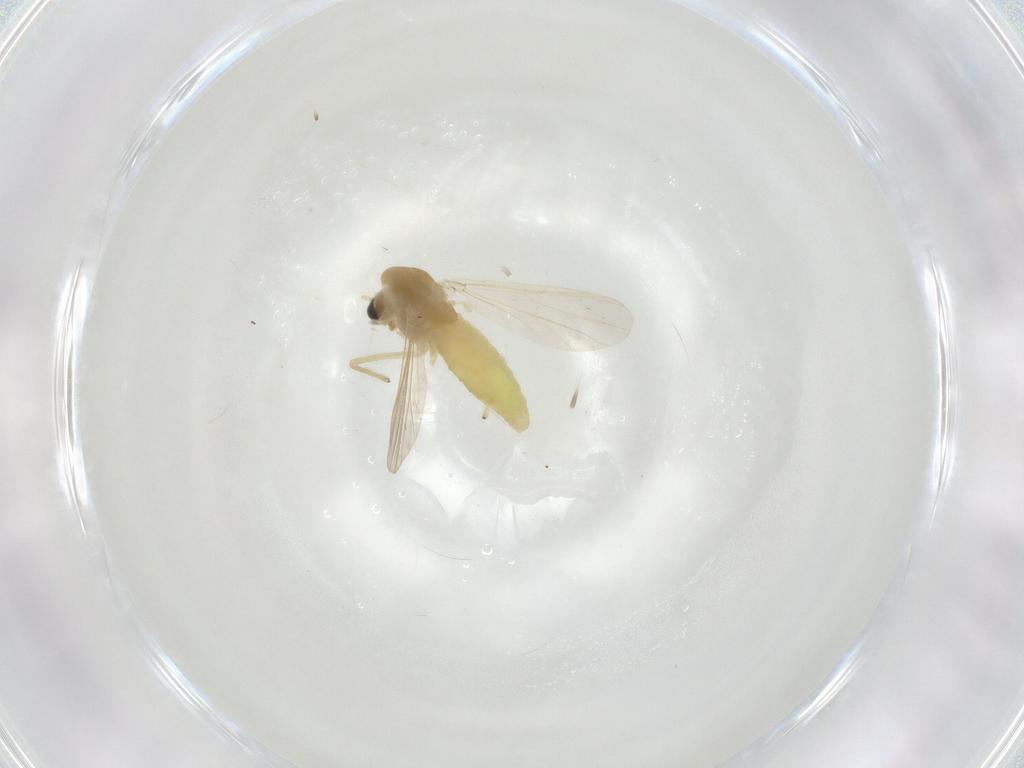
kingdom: Animalia
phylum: Arthropoda
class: Insecta
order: Diptera
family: Chironomidae
